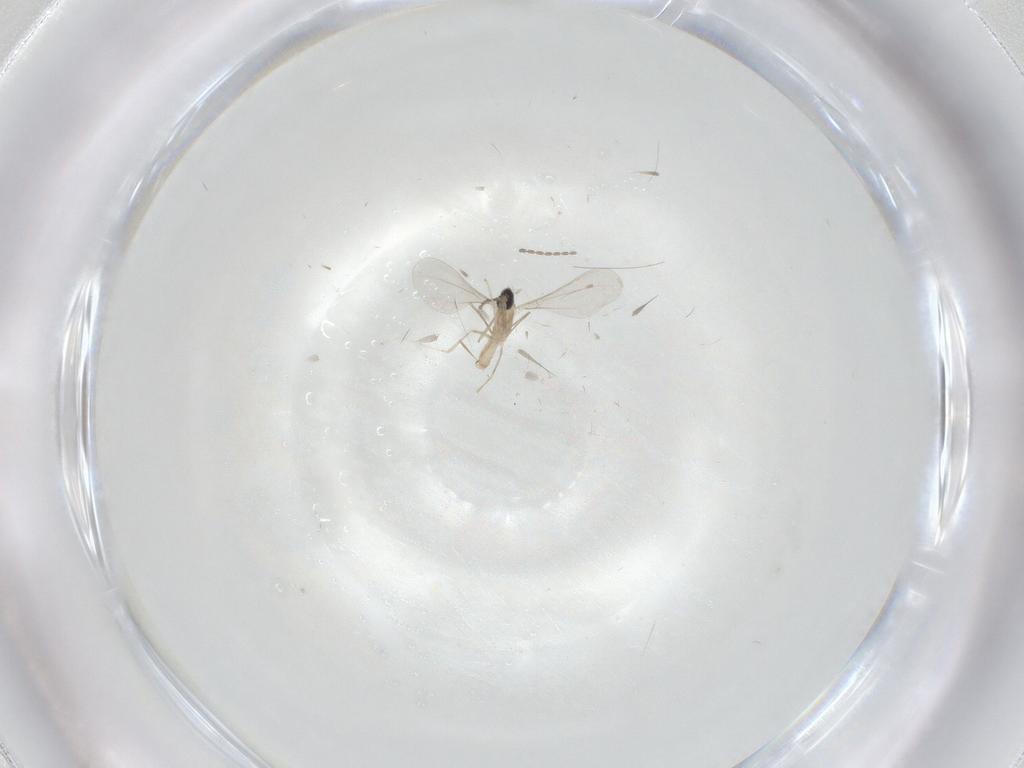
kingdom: Animalia
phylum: Arthropoda
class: Insecta
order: Diptera
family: Cecidomyiidae
